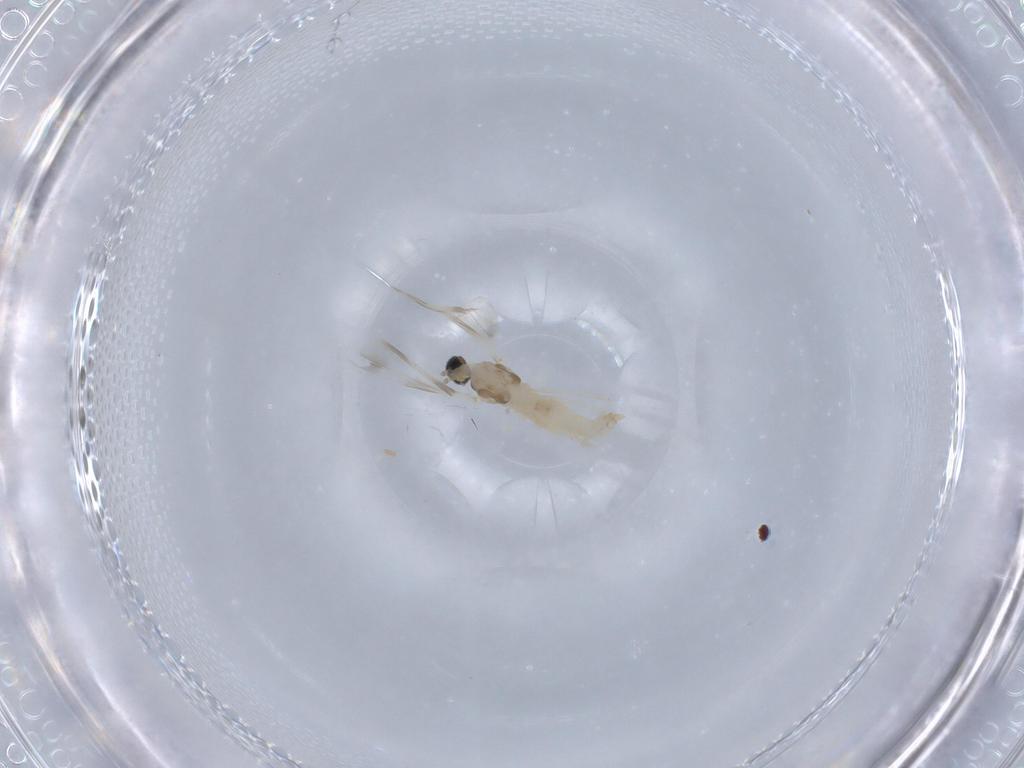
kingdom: Animalia
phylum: Arthropoda
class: Insecta
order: Diptera
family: Cecidomyiidae
